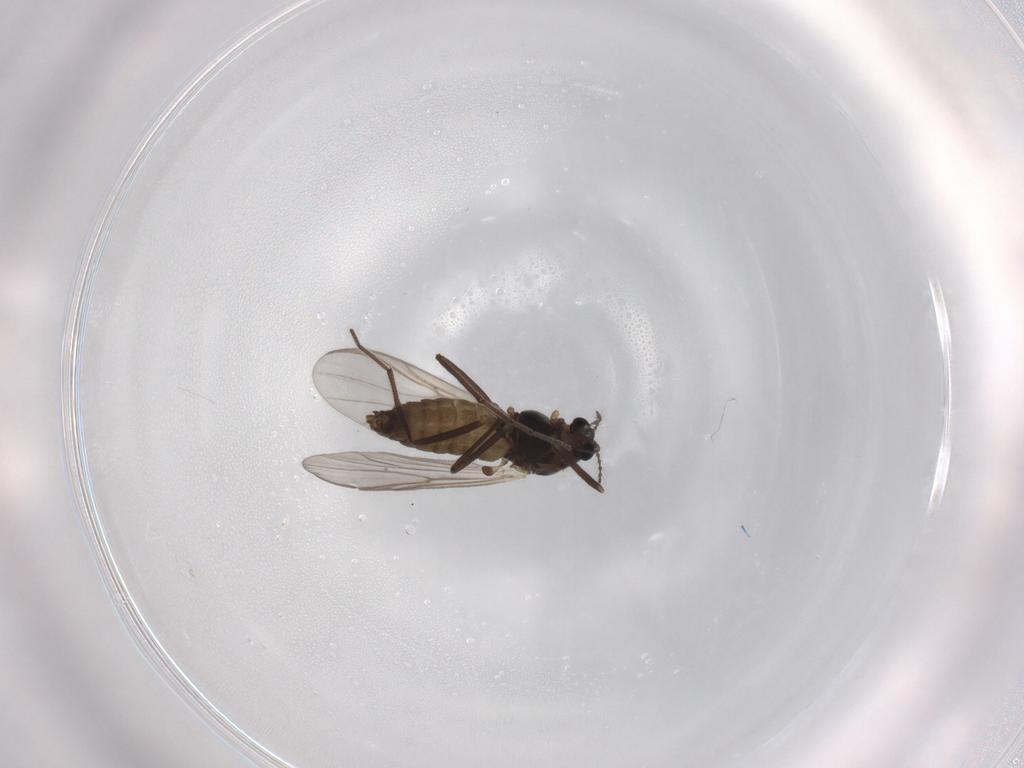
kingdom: Animalia
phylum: Arthropoda
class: Insecta
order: Diptera
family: Chironomidae
